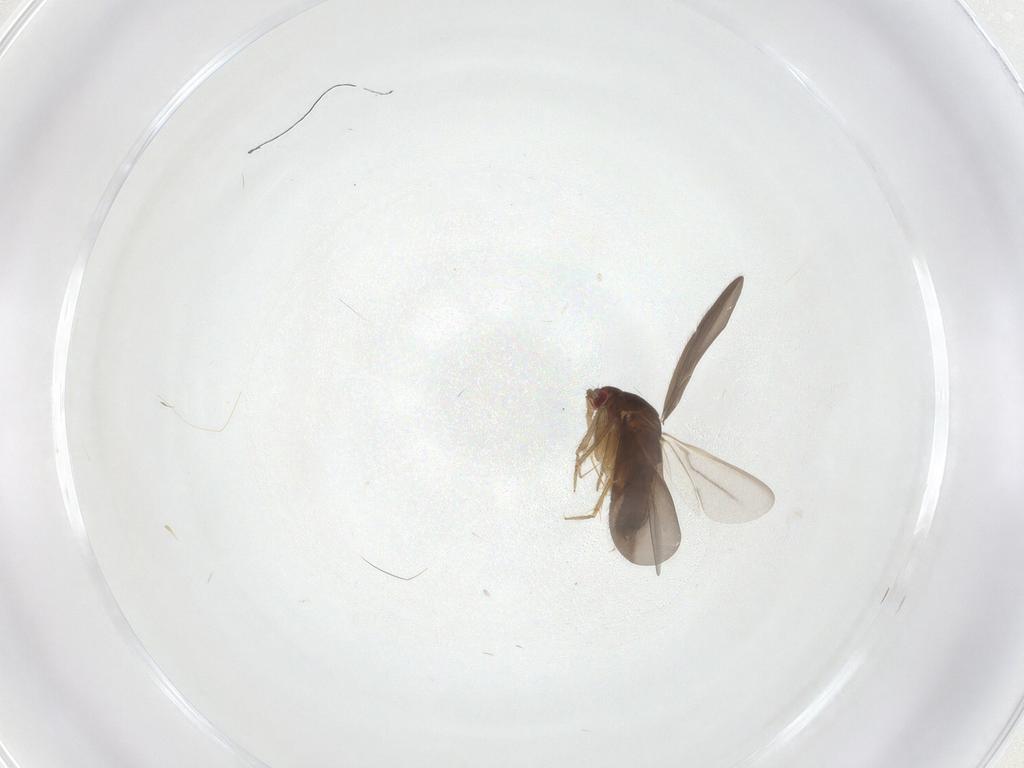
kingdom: Animalia
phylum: Arthropoda
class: Insecta
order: Hemiptera
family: Ceratocombidae
